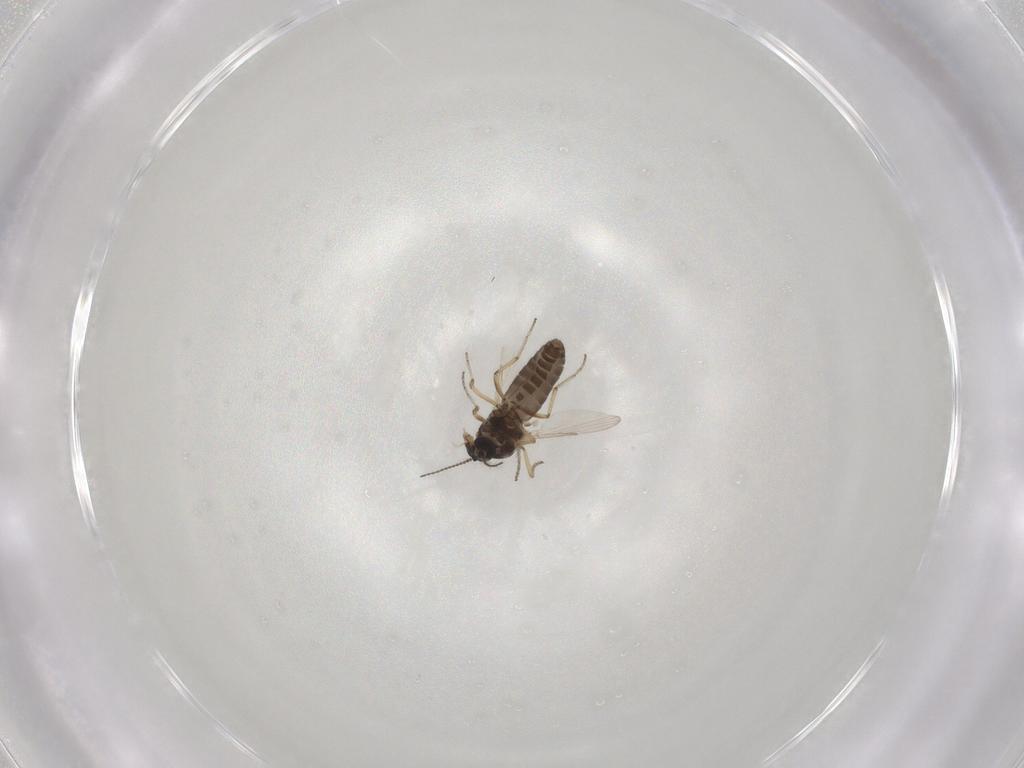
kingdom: Animalia
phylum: Arthropoda
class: Insecta
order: Diptera
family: Ceratopogonidae
